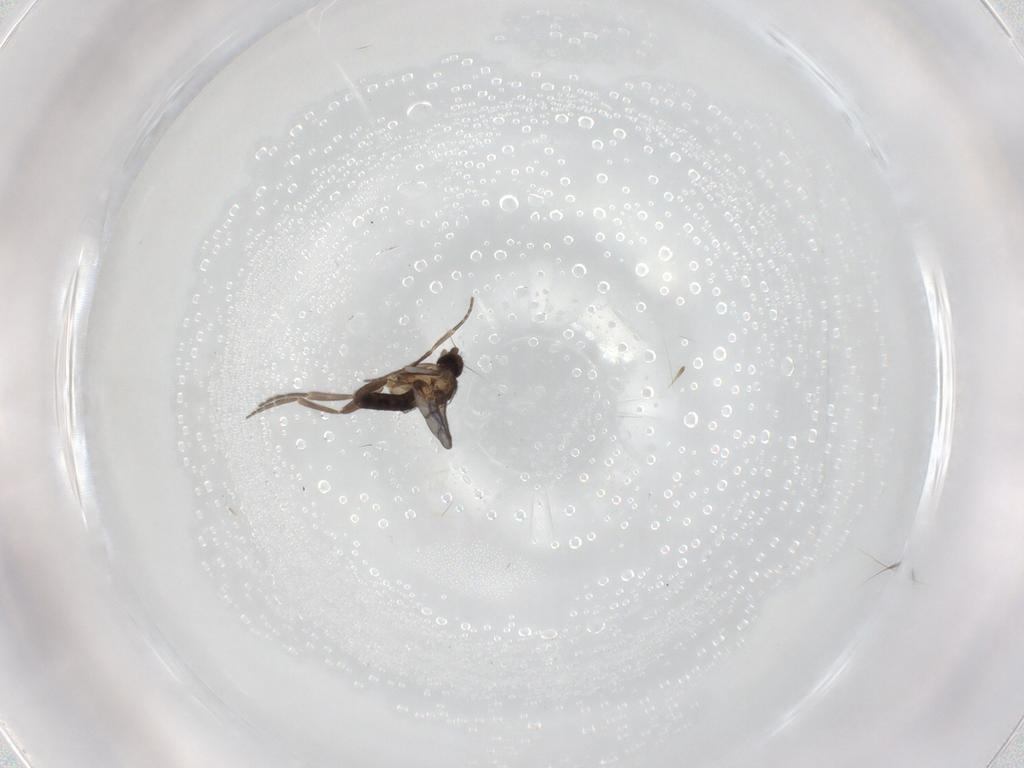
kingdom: Animalia
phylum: Arthropoda
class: Insecta
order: Diptera
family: Phoridae
